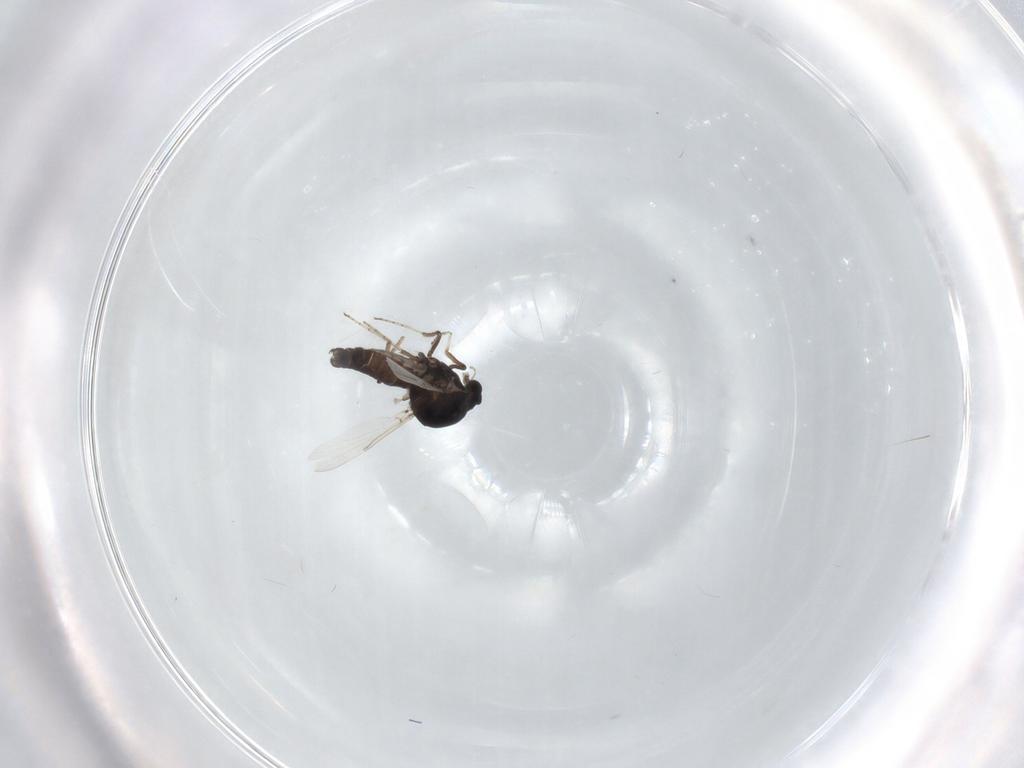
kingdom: Animalia
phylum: Arthropoda
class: Insecta
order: Diptera
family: Ceratopogonidae
